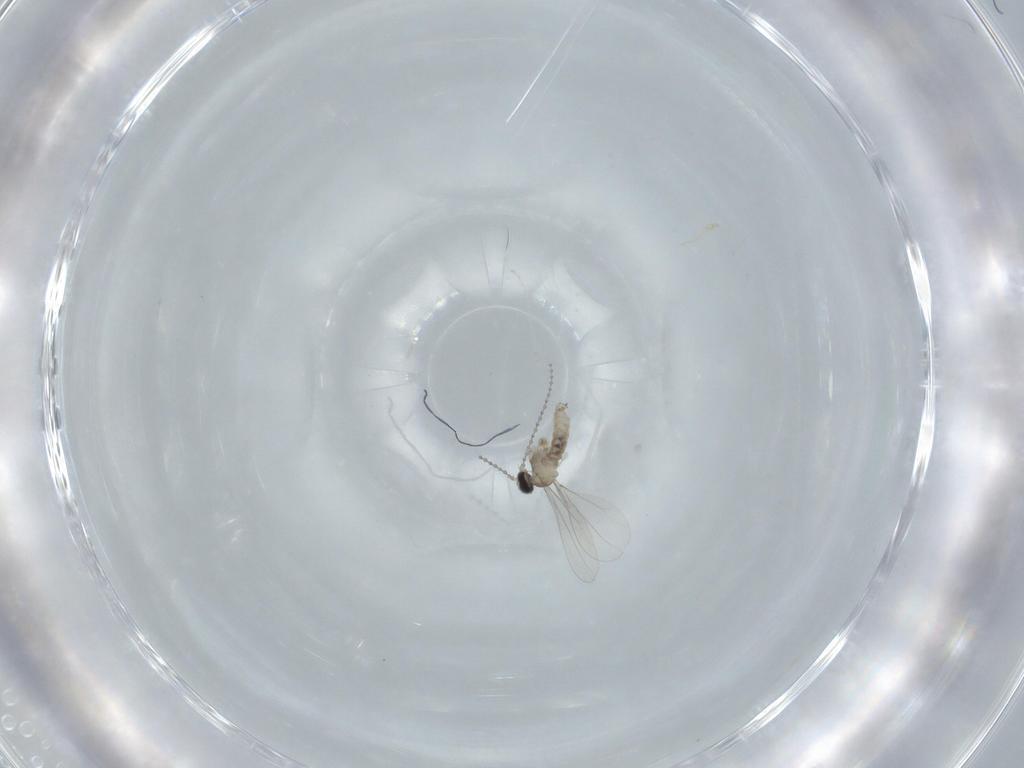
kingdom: Animalia
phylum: Arthropoda
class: Insecta
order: Diptera
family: Cecidomyiidae
